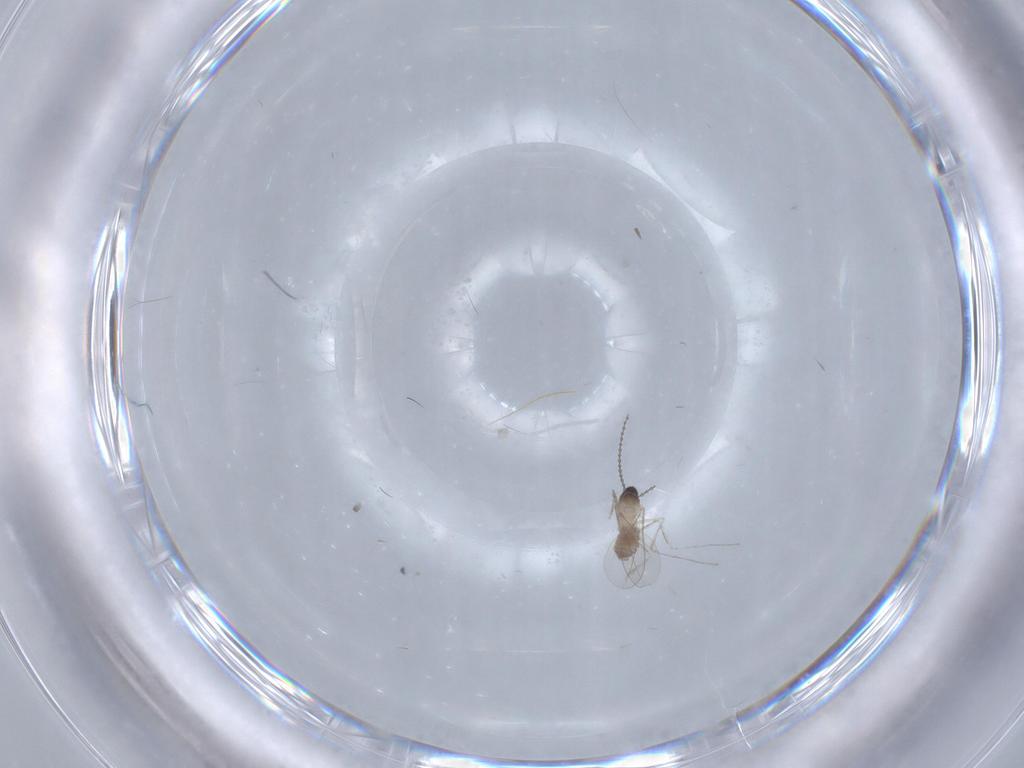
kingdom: Animalia
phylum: Arthropoda
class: Insecta
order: Diptera
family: Cecidomyiidae
